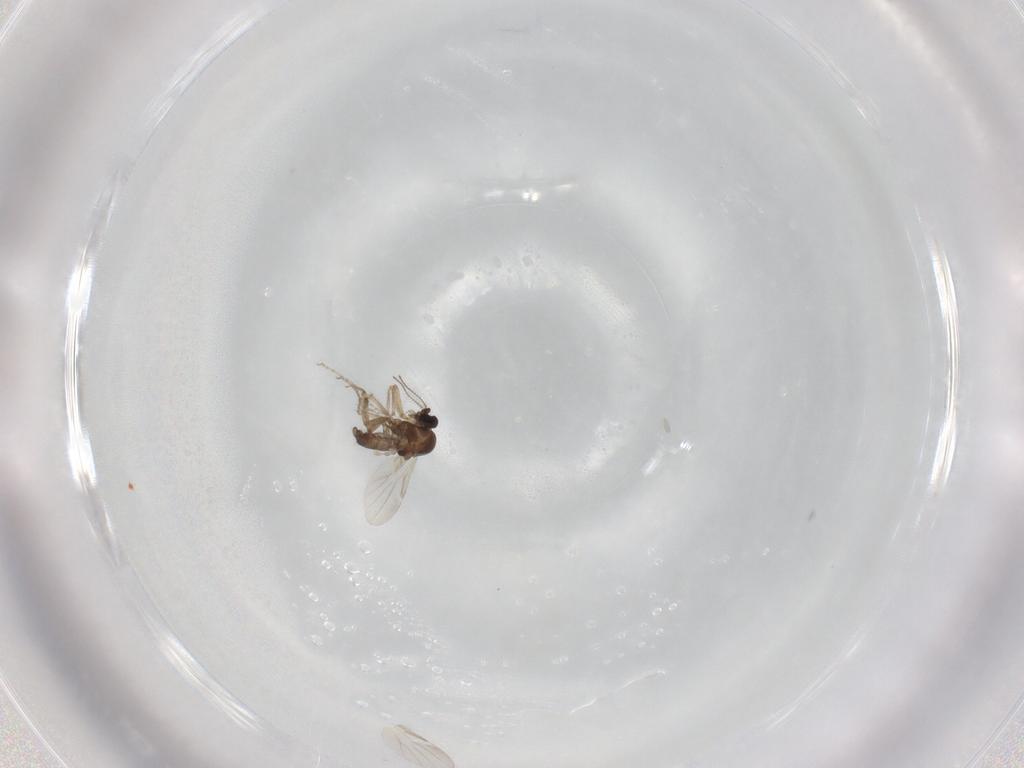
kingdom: Animalia
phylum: Arthropoda
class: Insecta
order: Diptera
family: Ceratopogonidae
